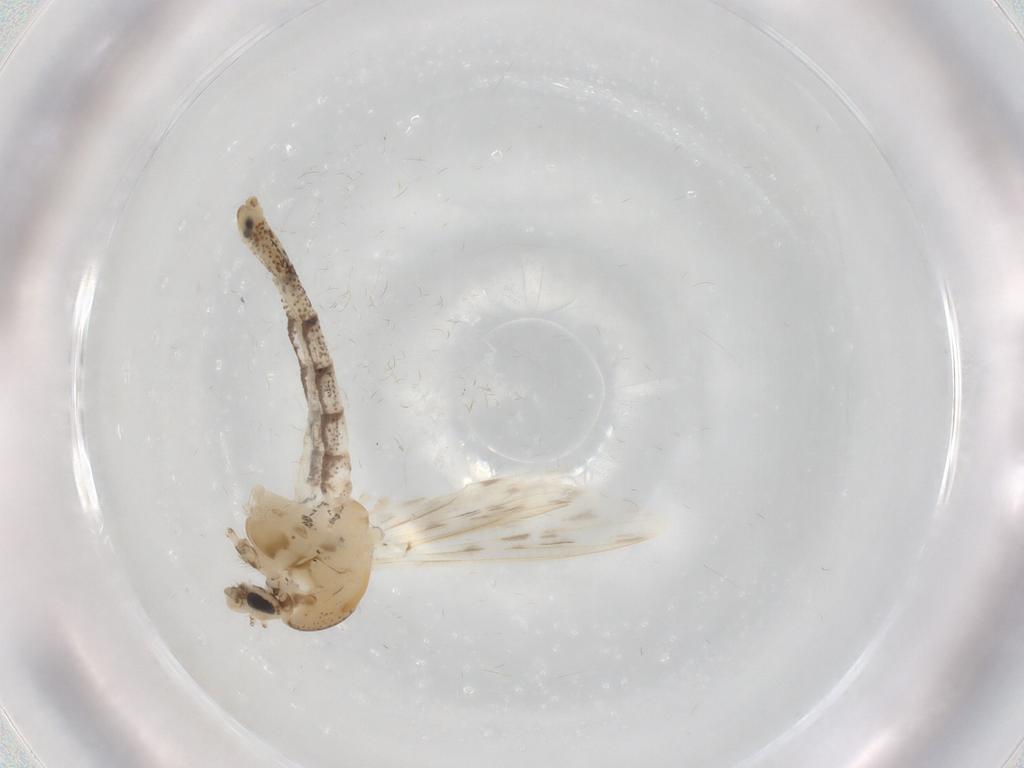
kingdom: Animalia
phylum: Arthropoda
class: Insecta
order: Diptera
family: Chaoboridae
